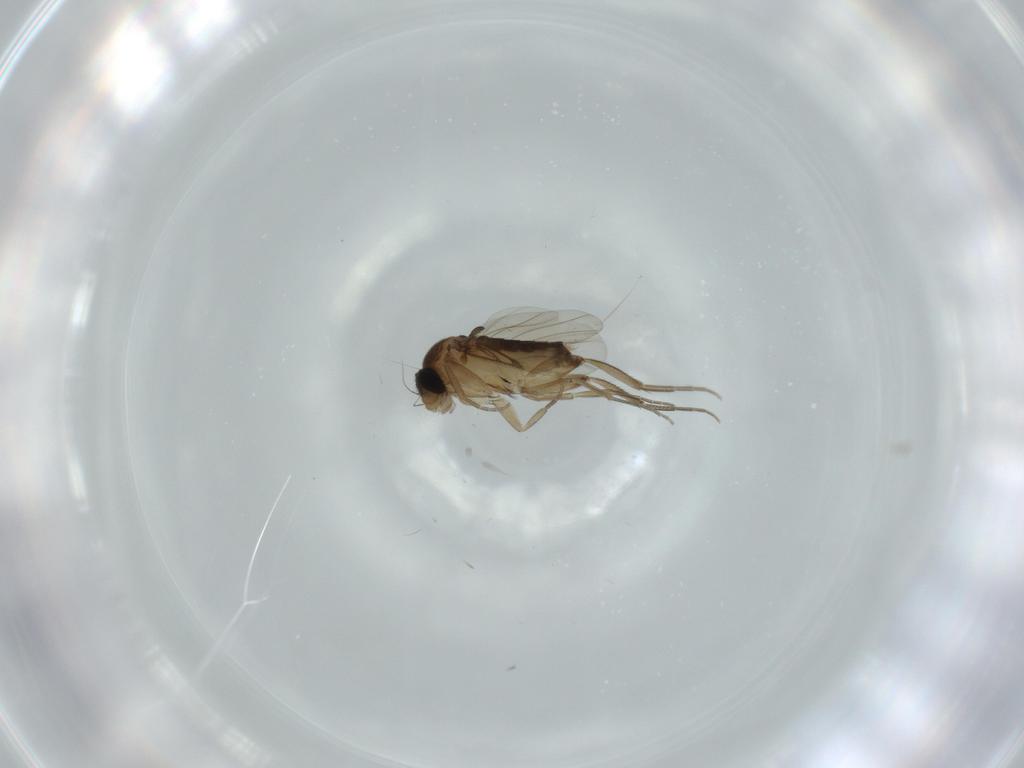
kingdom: Animalia
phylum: Arthropoda
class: Insecta
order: Diptera
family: Phoridae
